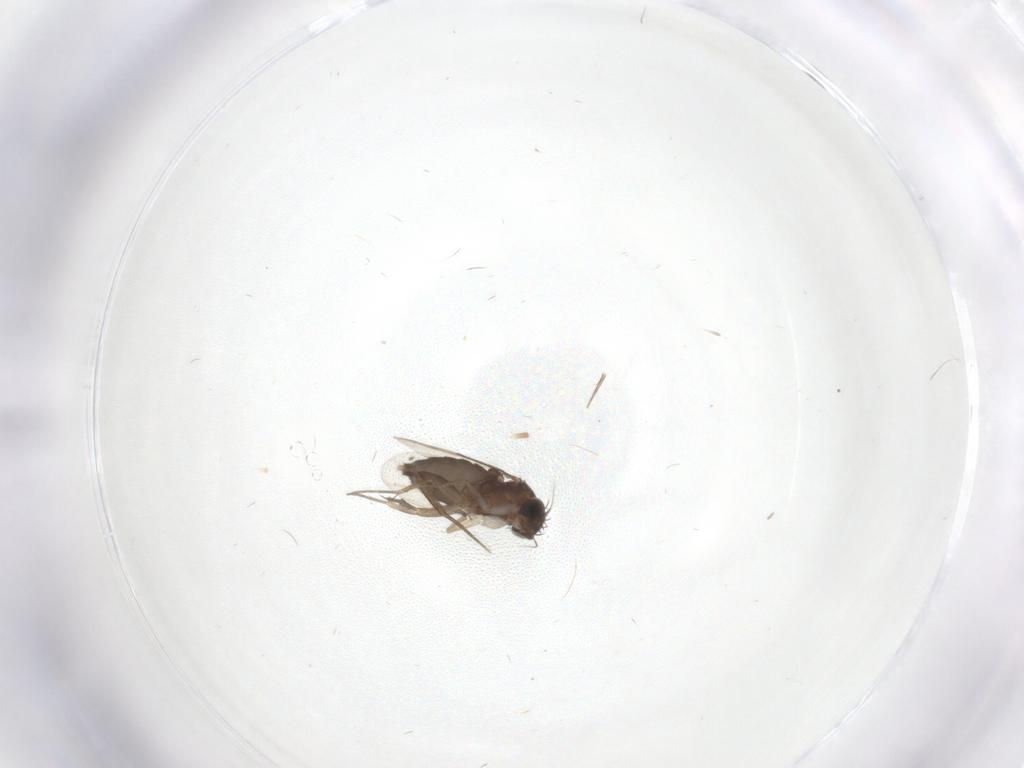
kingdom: Animalia
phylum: Arthropoda
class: Insecta
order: Diptera
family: Phoridae
